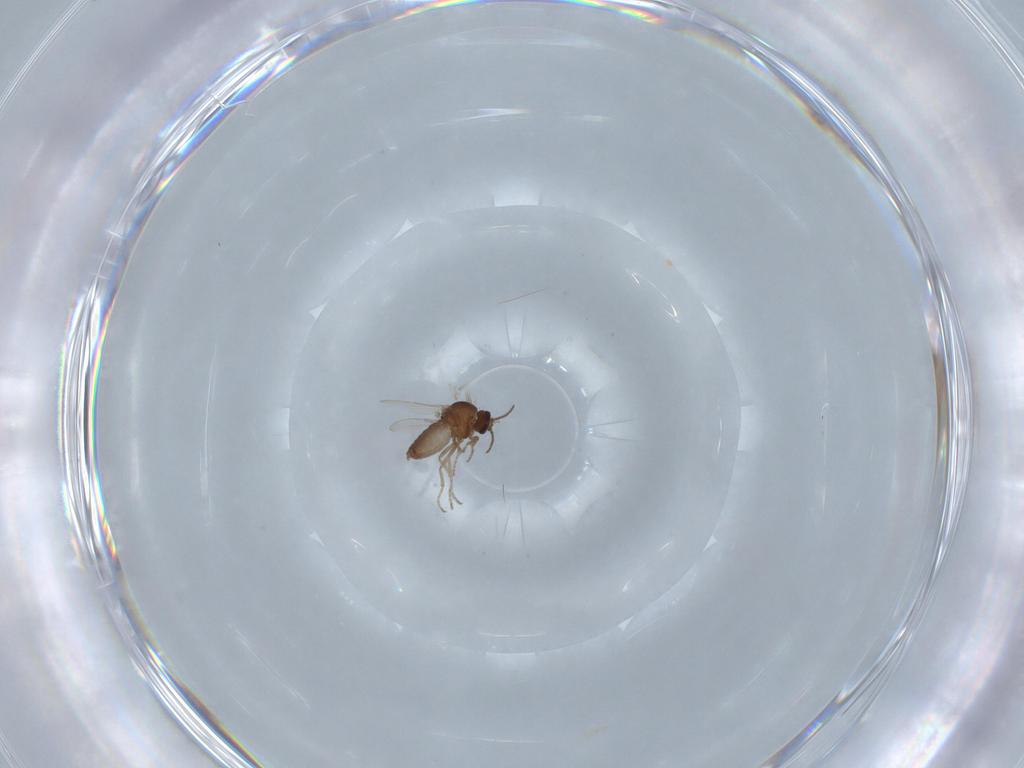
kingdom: Animalia
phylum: Arthropoda
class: Insecta
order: Diptera
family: Ceratopogonidae
